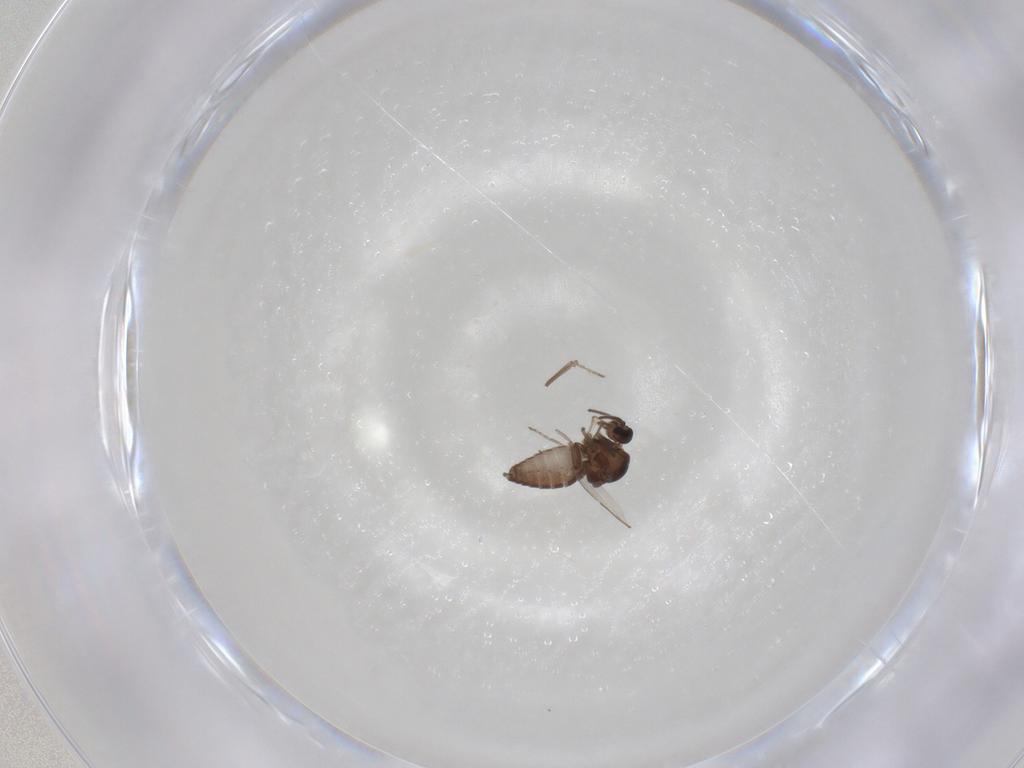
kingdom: Animalia
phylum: Arthropoda
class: Insecta
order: Diptera
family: Ceratopogonidae
